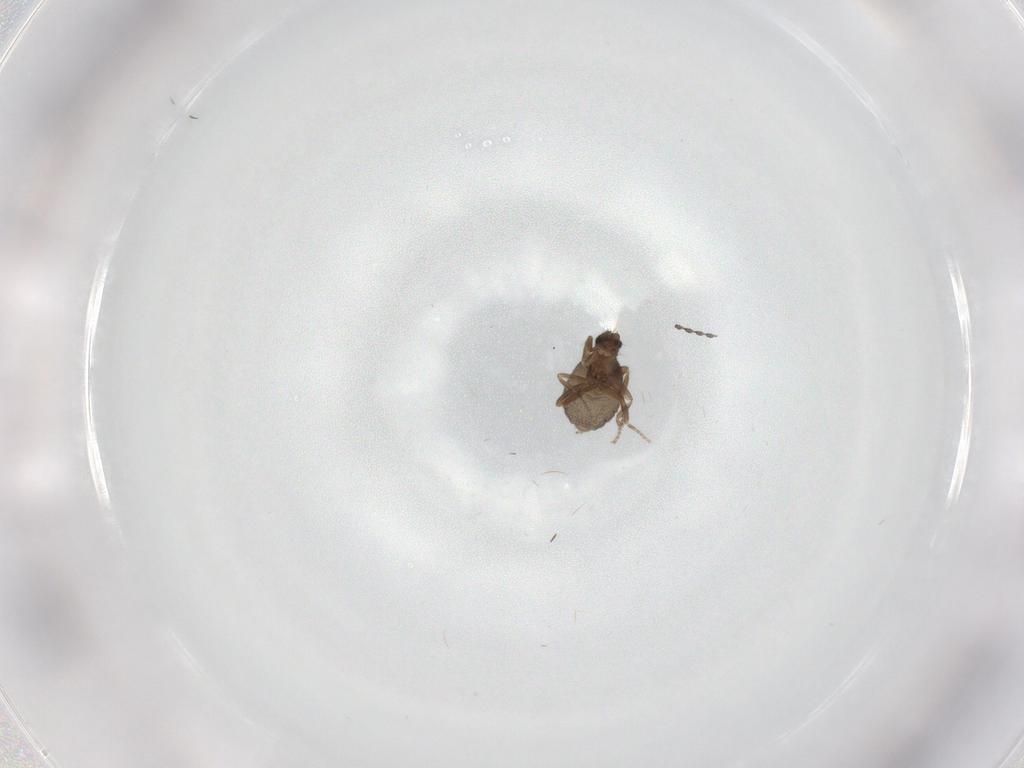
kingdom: Animalia
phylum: Arthropoda
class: Insecta
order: Diptera
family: Phoridae
